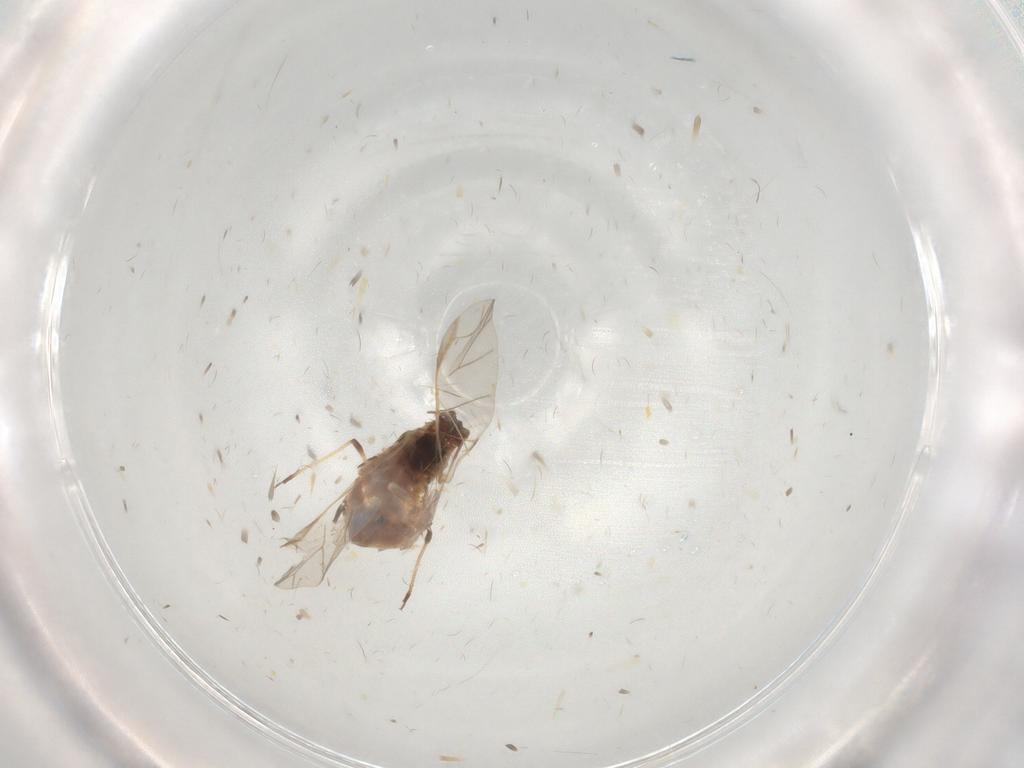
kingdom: Animalia
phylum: Arthropoda
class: Insecta
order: Hemiptera
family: Aphididae
